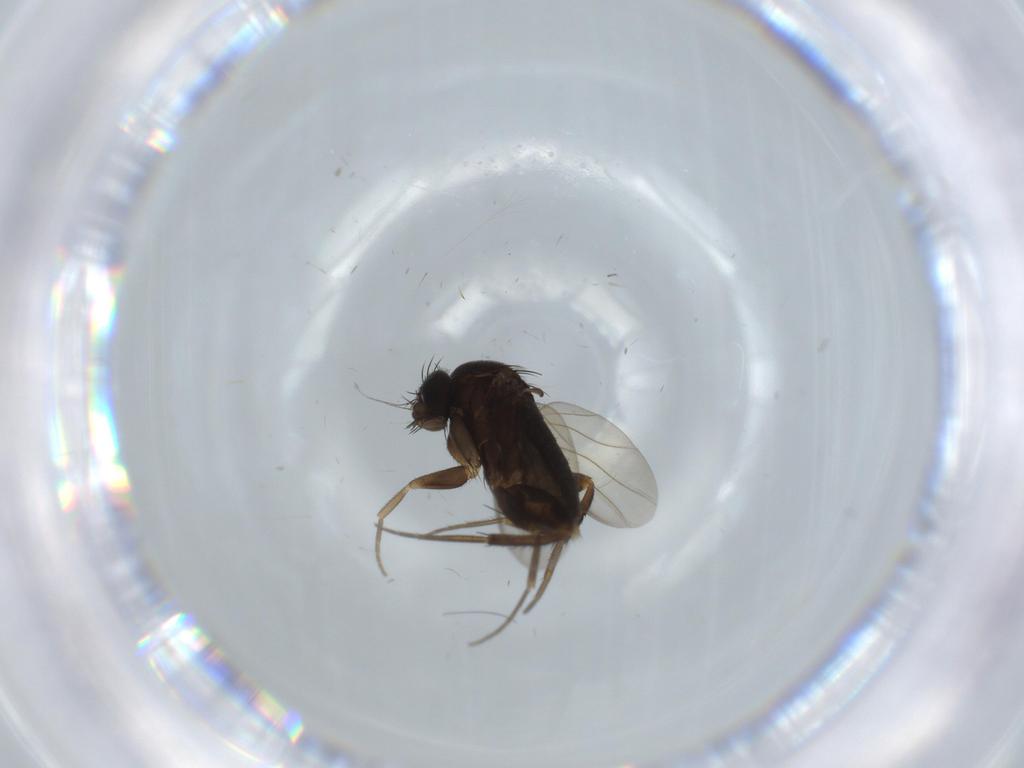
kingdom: Animalia
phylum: Arthropoda
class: Insecta
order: Diptera
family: Phoridae
